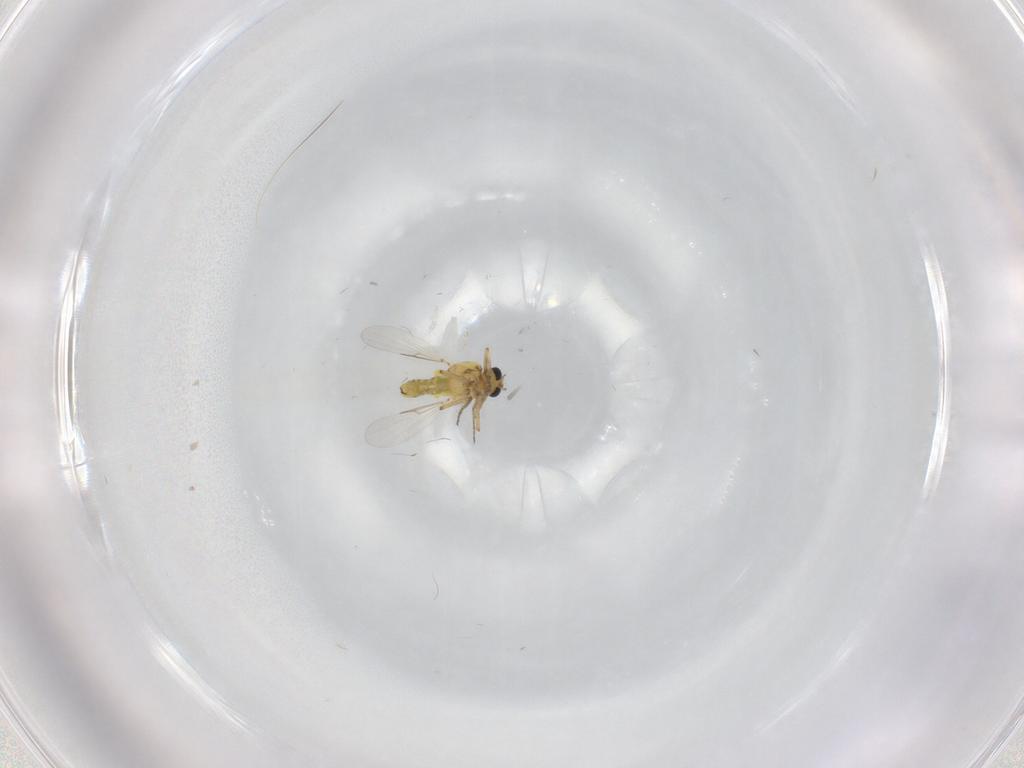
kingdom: Animalia
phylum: Arthropoda
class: Insecta
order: Diptera
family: Ceratopogonidae
